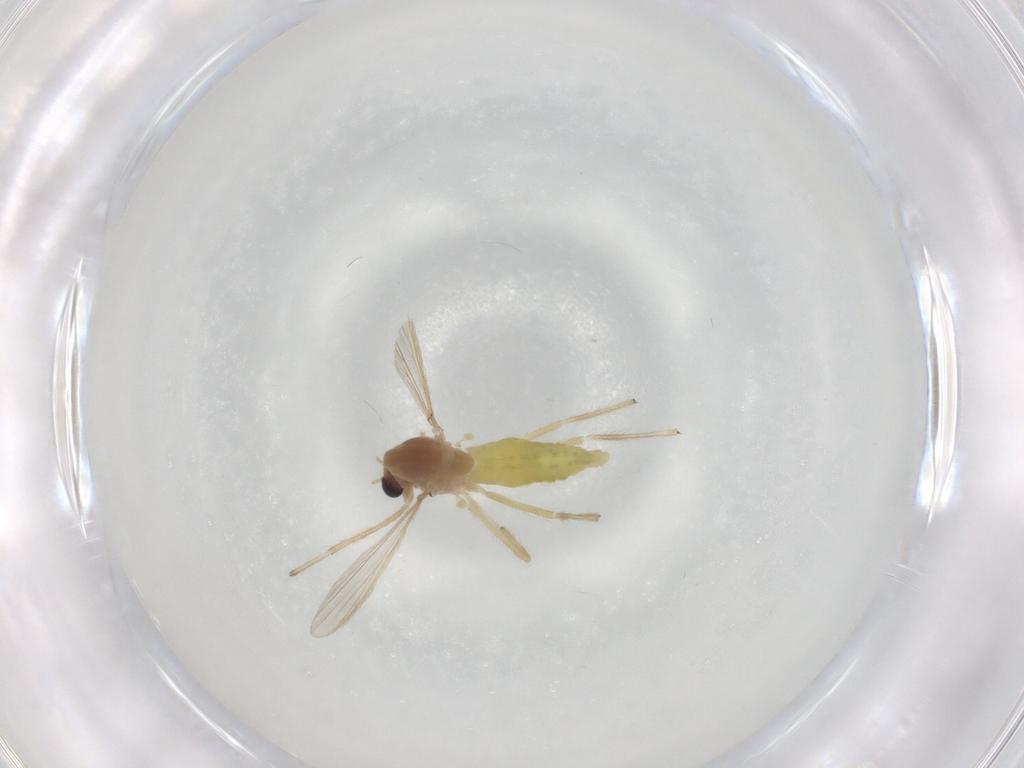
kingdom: Animalia
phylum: Arthropoda
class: Insecta
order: Diptera
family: Chironomidae
